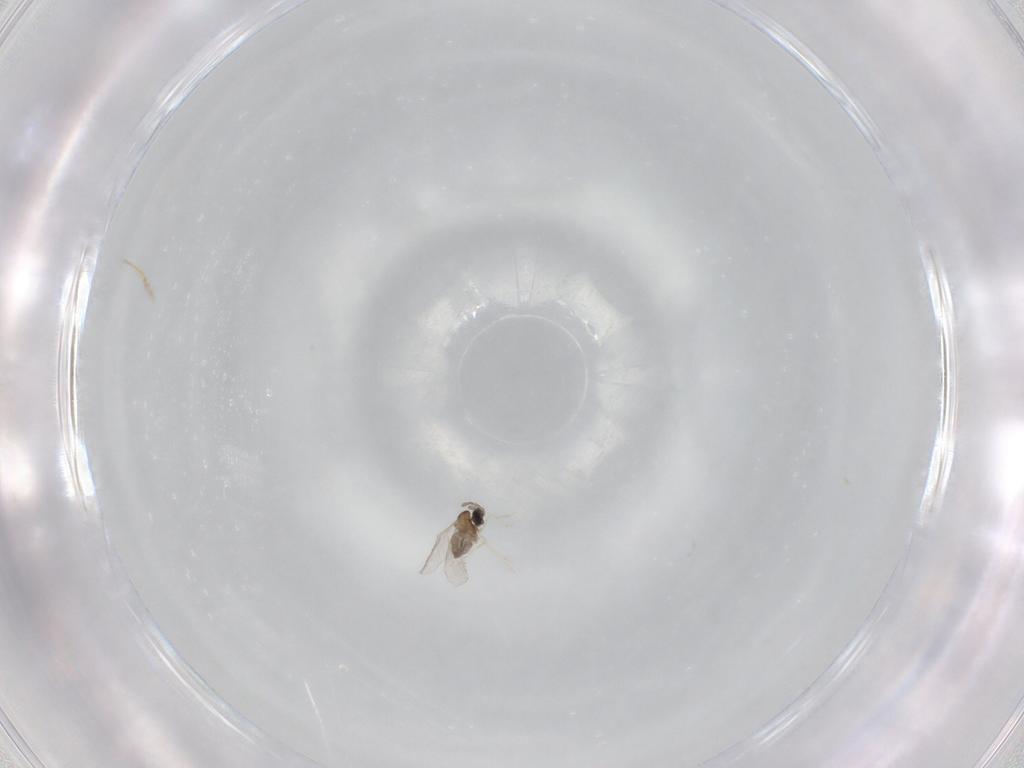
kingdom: Animalia
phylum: Arthropoda
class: Insecta
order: Diptera
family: Cecidomyiidae
